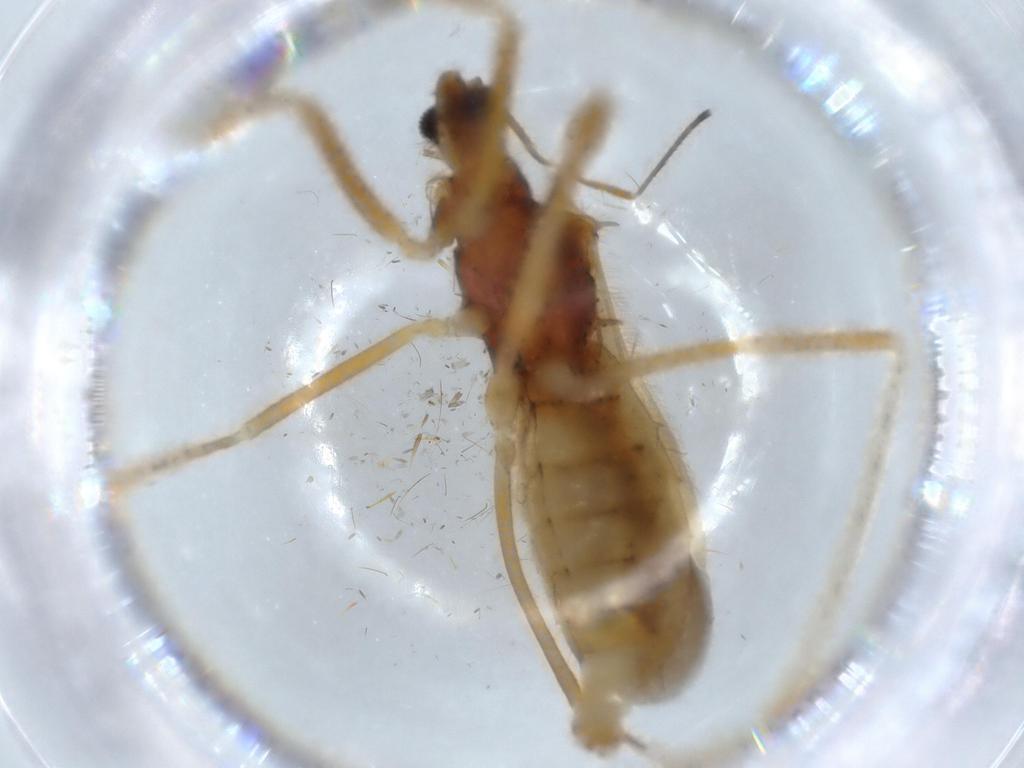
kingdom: Animalia
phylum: Arthropoda
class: Insecta
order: Hemiptera
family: Reduviidae
